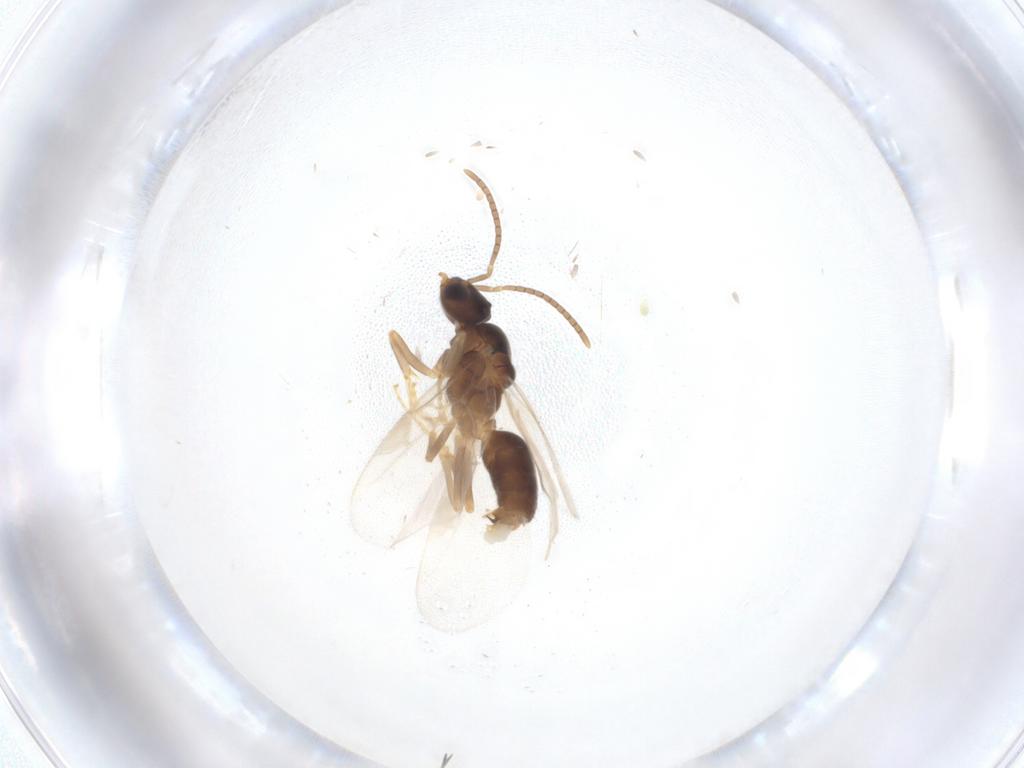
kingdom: Animalia
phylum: Arthropoda
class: Insecta
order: Hymenoptera
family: Formicidae
